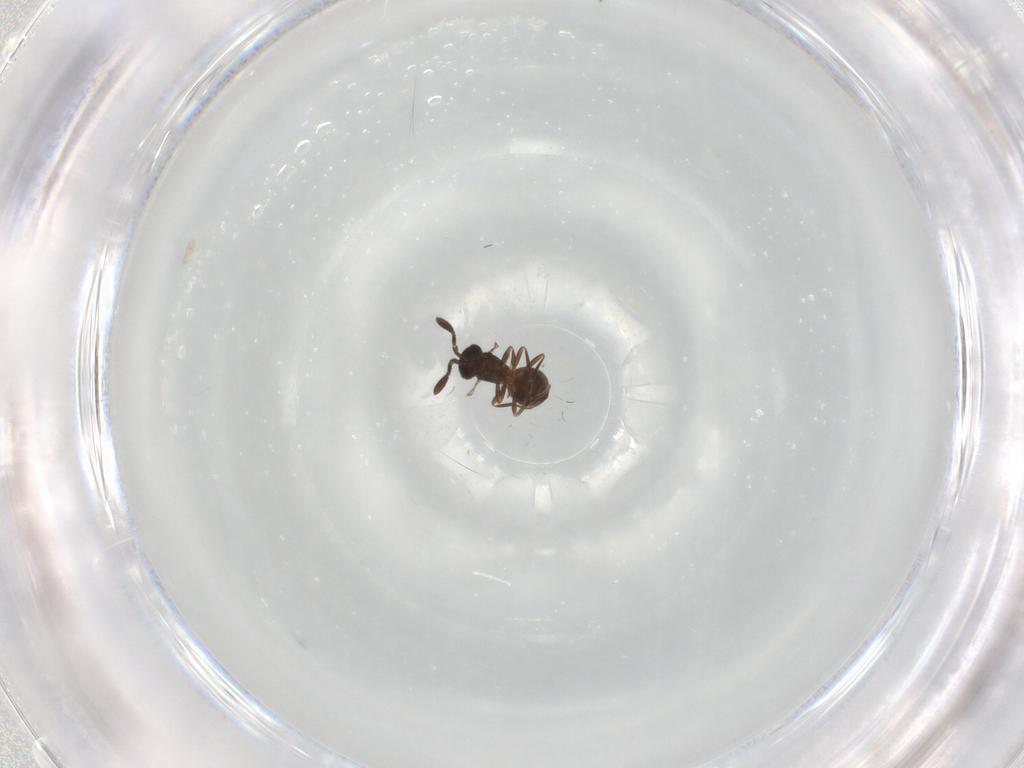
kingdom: Animalia
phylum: Arthropoda
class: Insecta
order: Hymenoptera
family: Scelionidae
